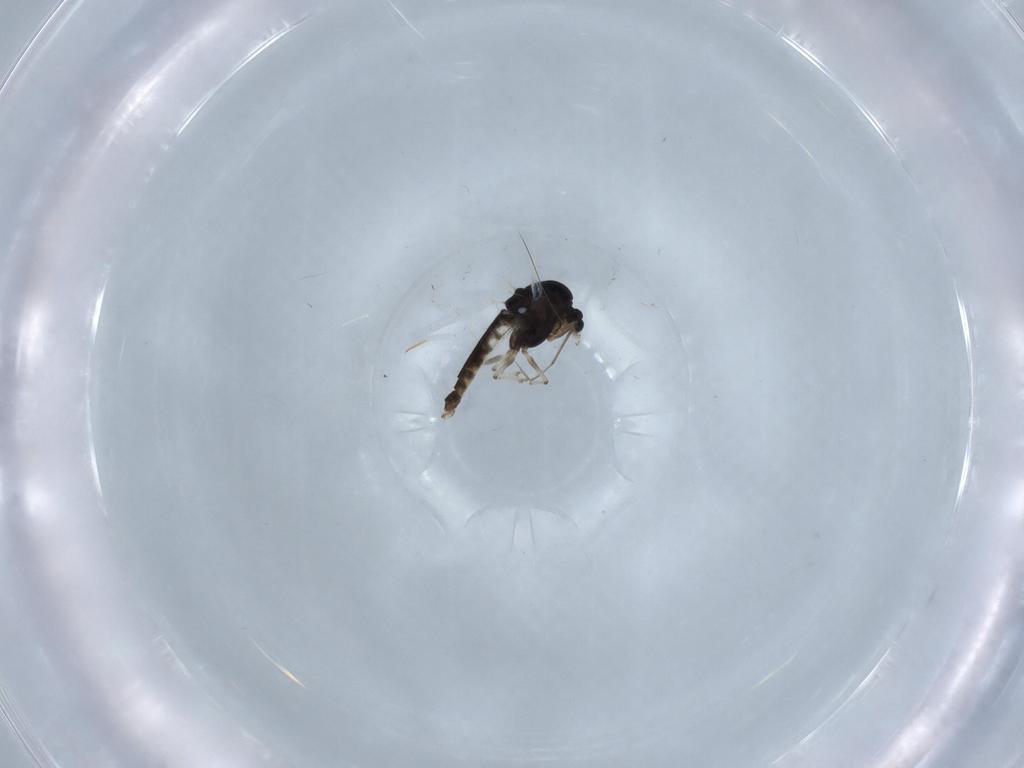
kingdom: Animalia
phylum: Arthropoda
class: Insecta
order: Diptera
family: Chironomidae
